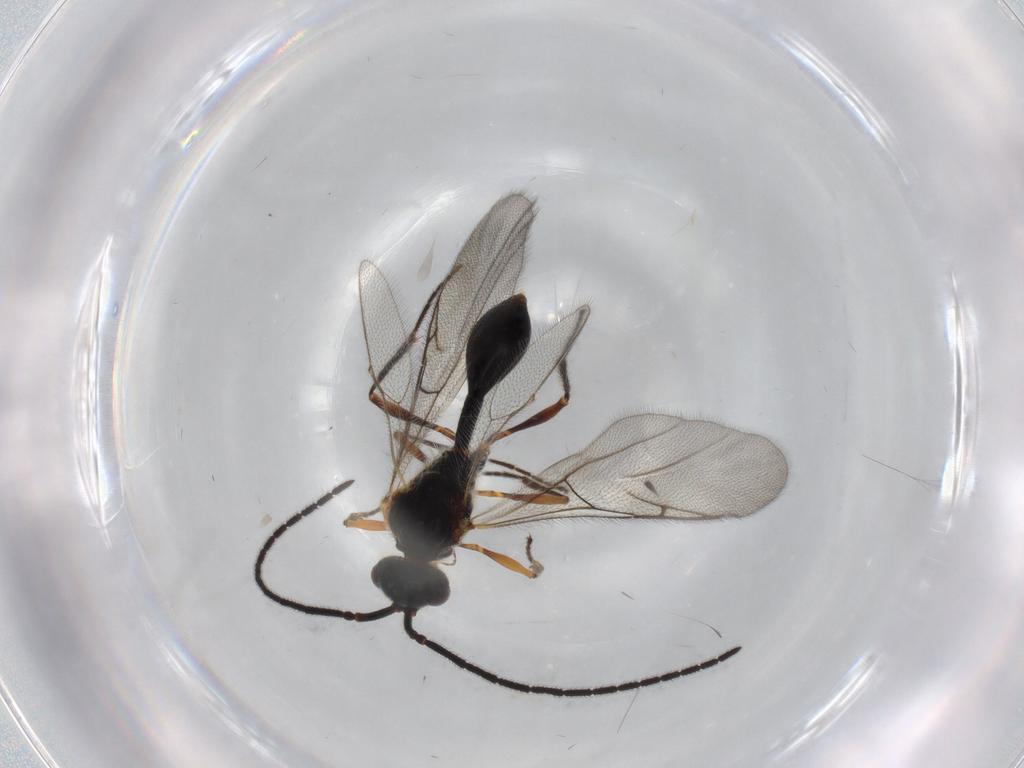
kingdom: Animalia
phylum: Arthropoda
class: Insecta
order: Hymenoptera
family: Diapriidae
